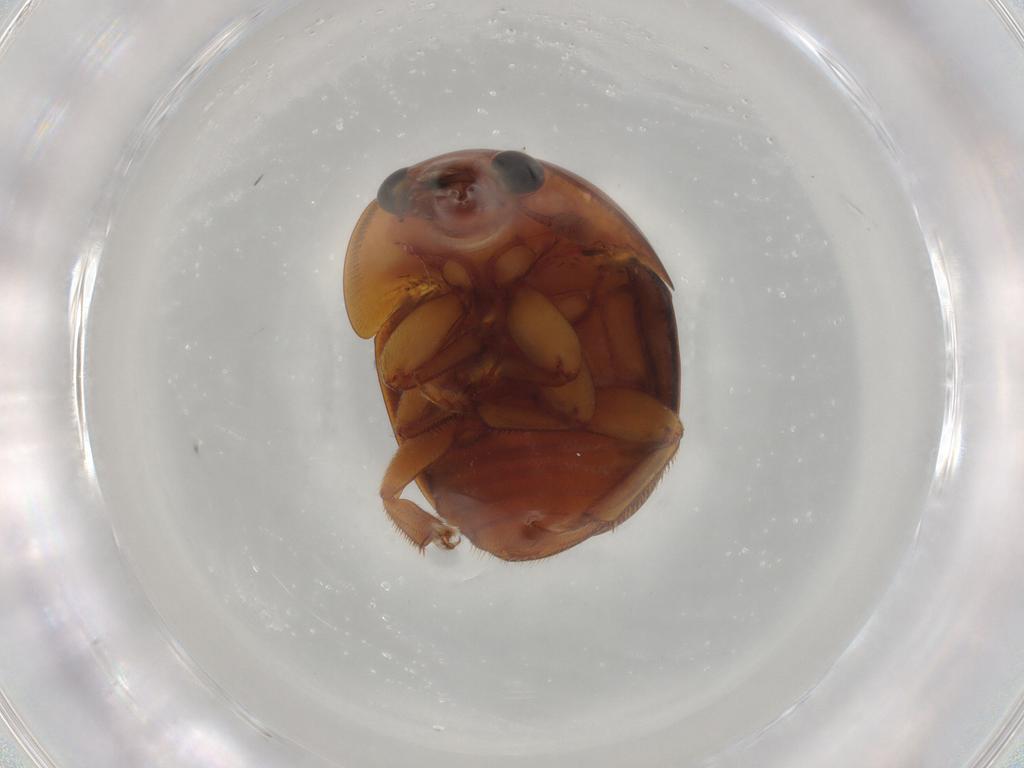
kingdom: Animalia
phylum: Arthropoda
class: Insecta
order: Coleoptera
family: Nitidulidae
